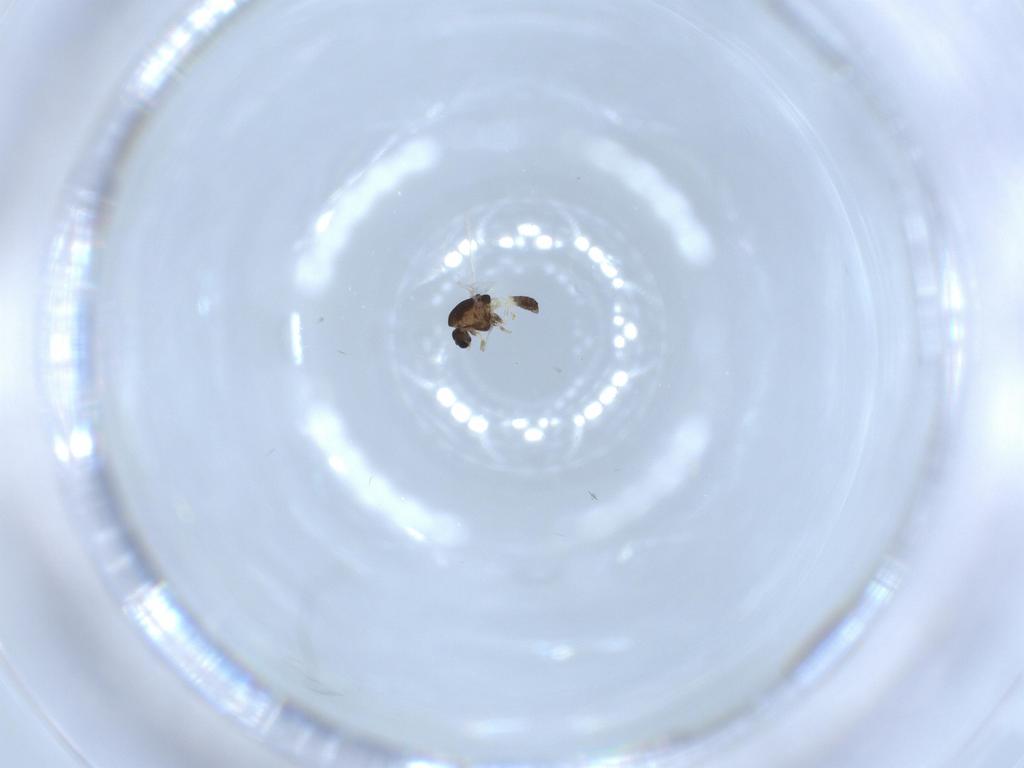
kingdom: Animalia
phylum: Arthropoda
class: Insecta
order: Diptera
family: Chironomidae
